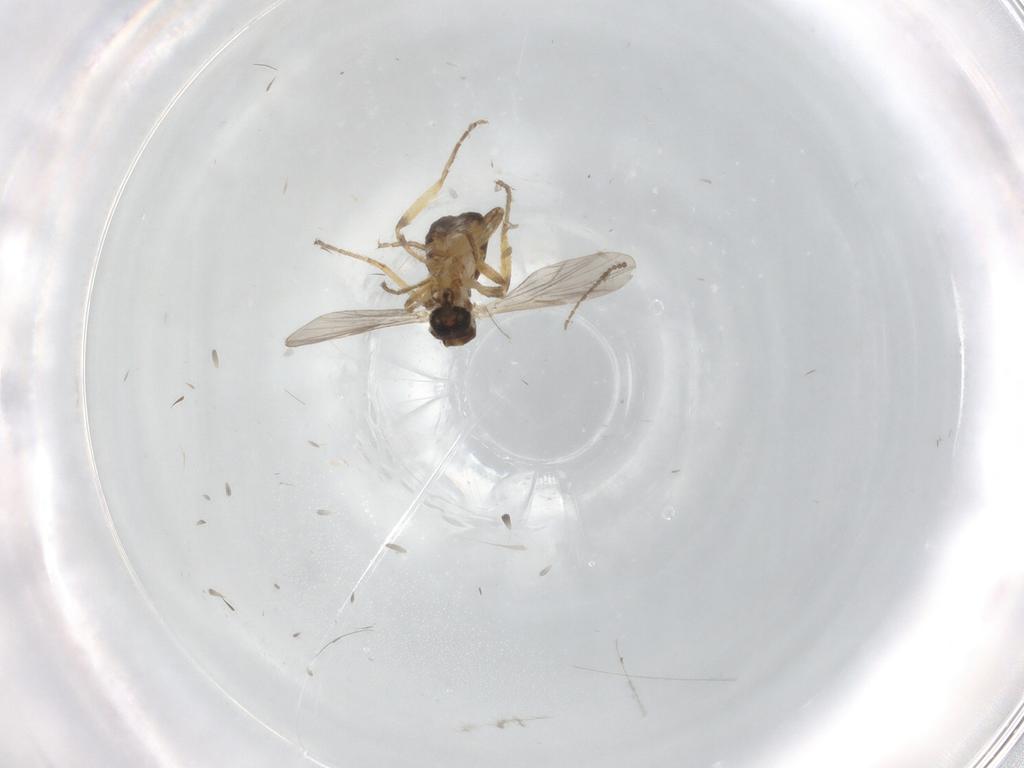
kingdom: Animalia
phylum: Arthropoda
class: Insecta
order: Diptera
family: Ceratopogonidae
